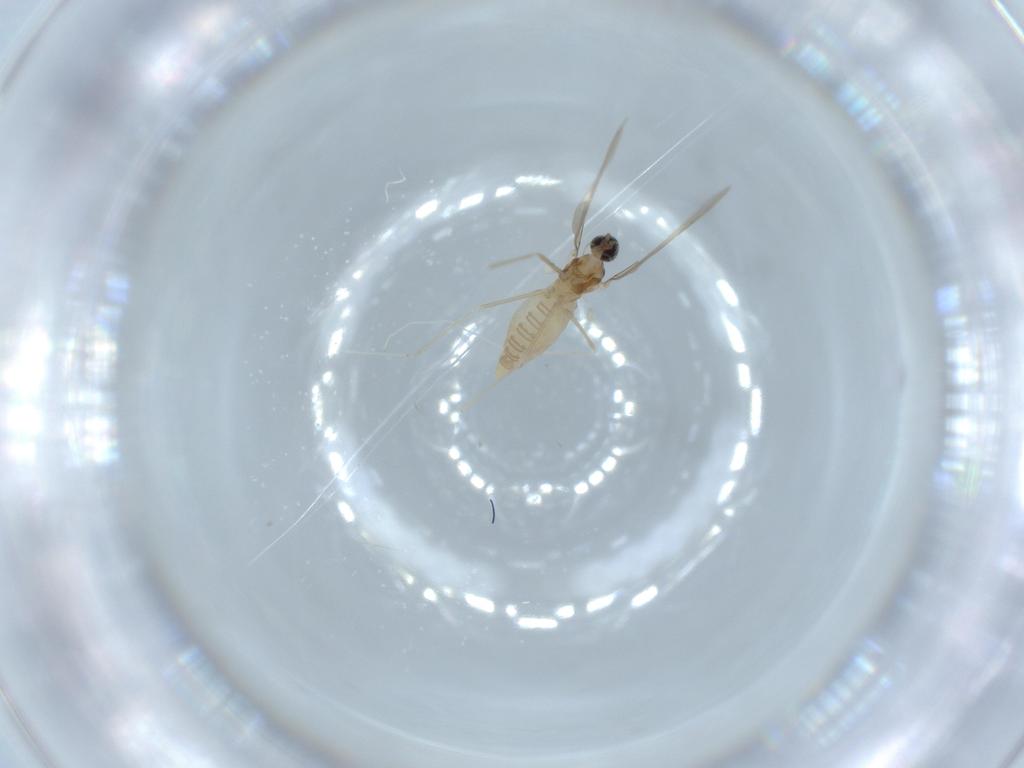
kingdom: Animalia
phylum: Arthropoda
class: Insecta
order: Diptera
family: Cecidomyiidae
